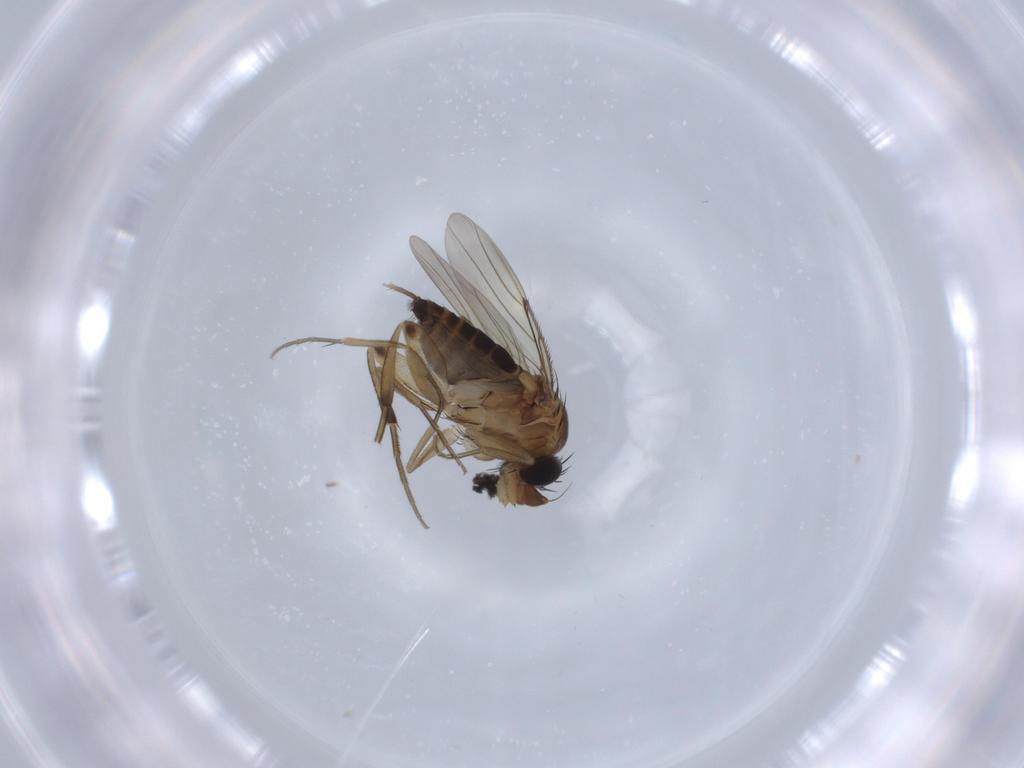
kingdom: Animalia
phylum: Arthropoda
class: Insecta
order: Diptera
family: Phoridae
